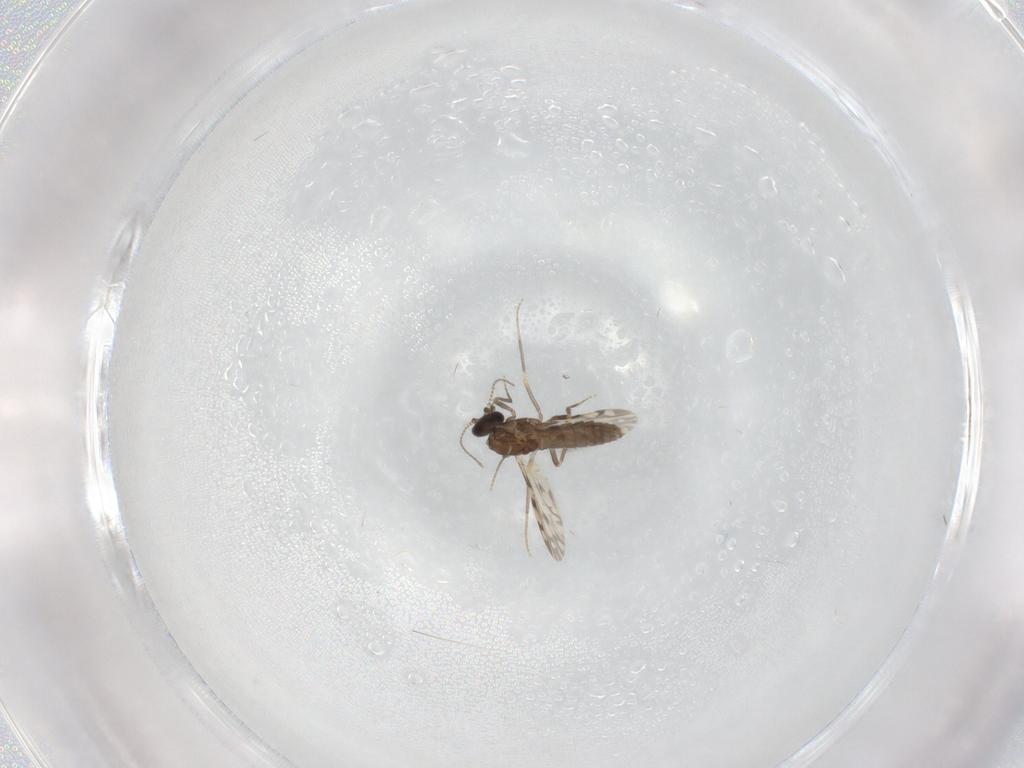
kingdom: Animalia
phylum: Arthropoda
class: Insecta
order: Diptera
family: Ceratopogonidae
